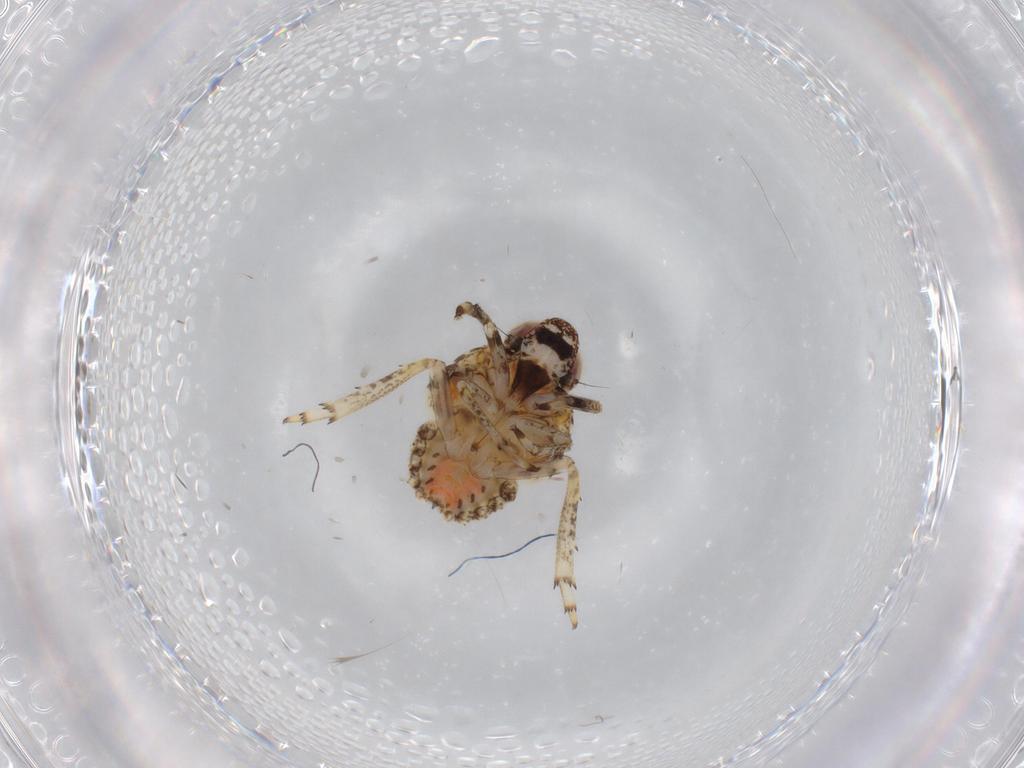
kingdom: Animalia
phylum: Arthropoda
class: Insecta
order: Hemiptera
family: Issidae
